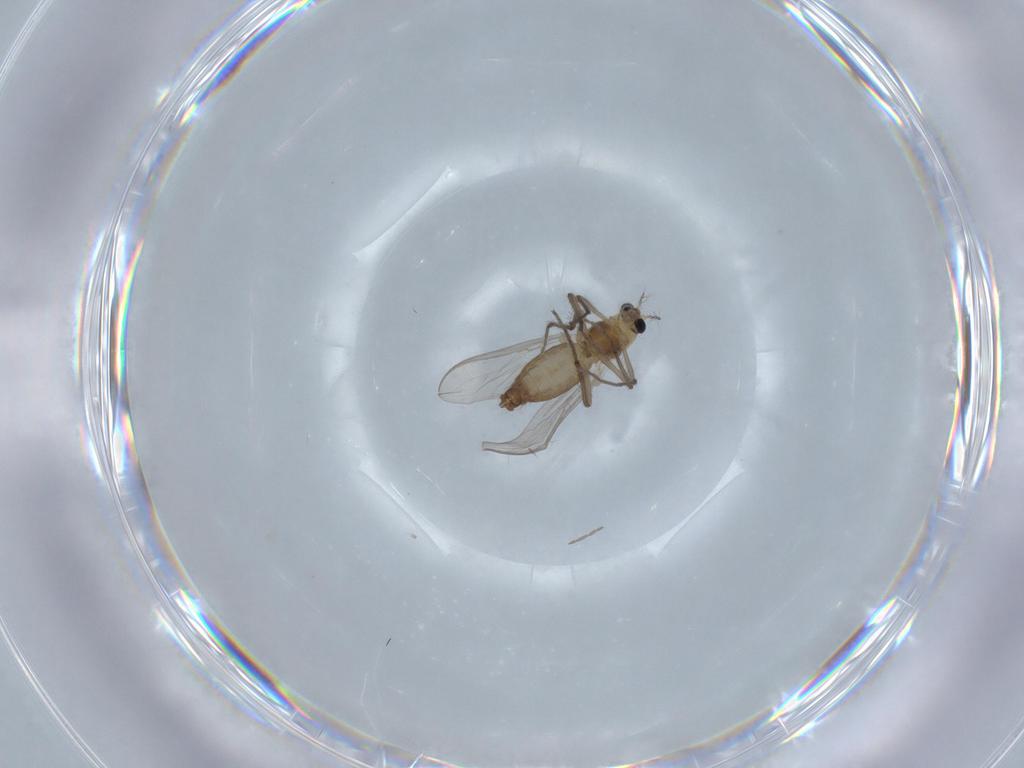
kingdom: Animalia
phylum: Arthropoda
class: Insecta
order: Diptera
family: Chironomidae
